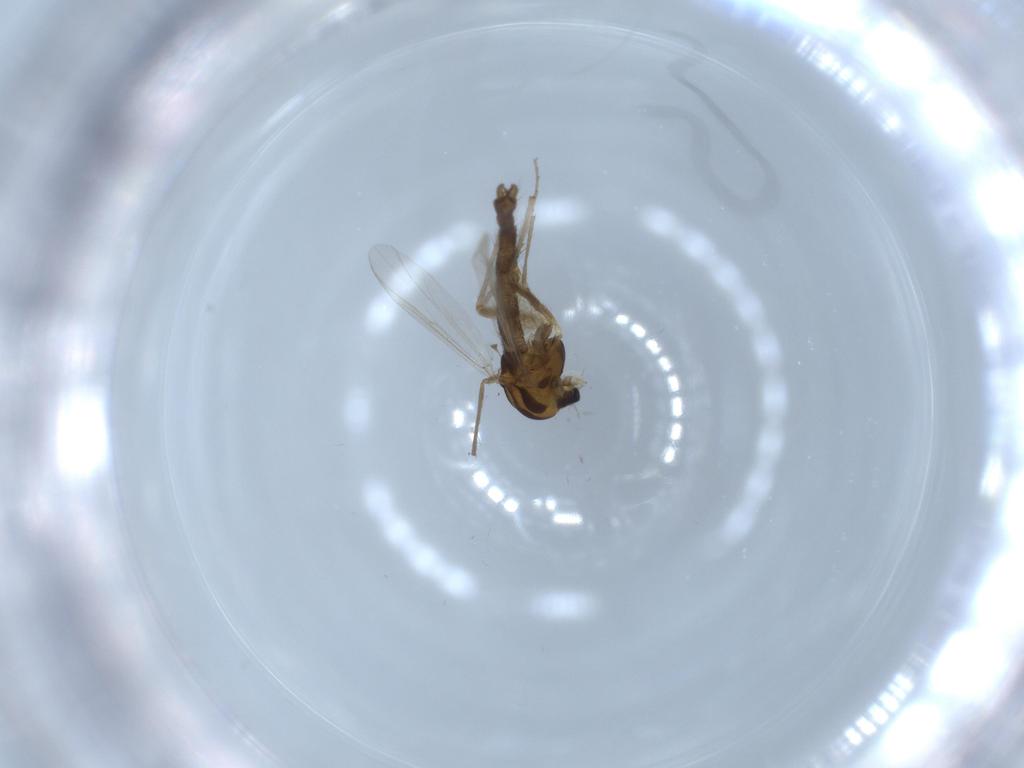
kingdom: Animalia
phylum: Arthropoda
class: Insecta
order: Diptera
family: Chironomidae
